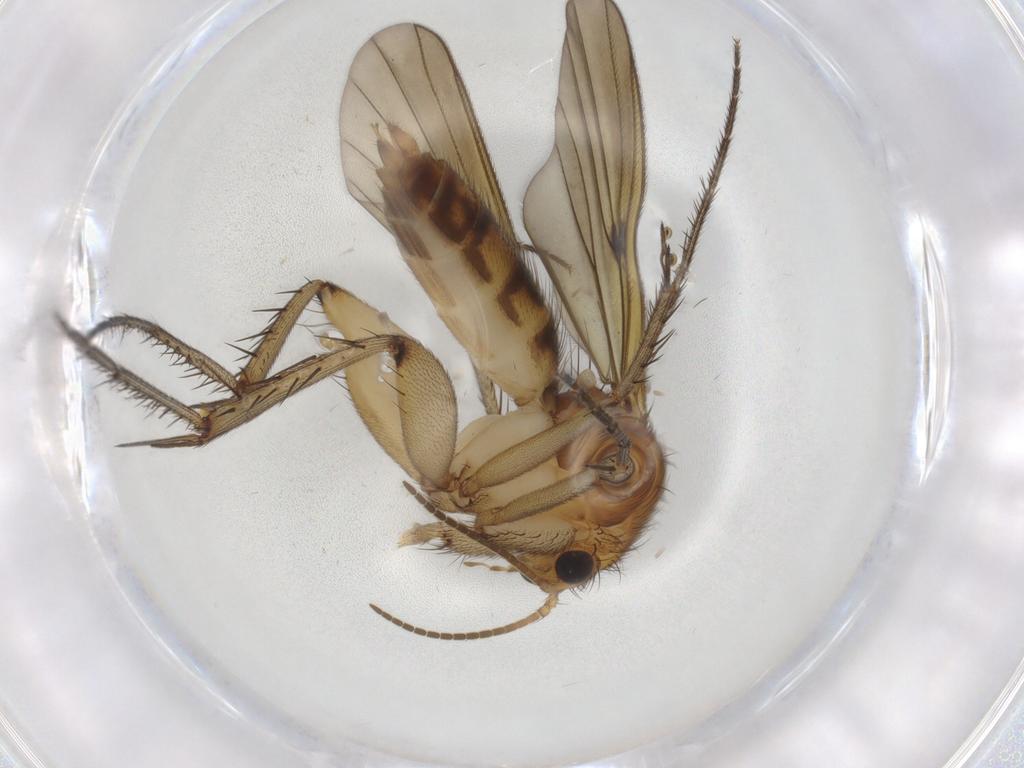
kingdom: Animalia
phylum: Arthropoda
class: Insecta
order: Diptera
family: Mycetophilidae
